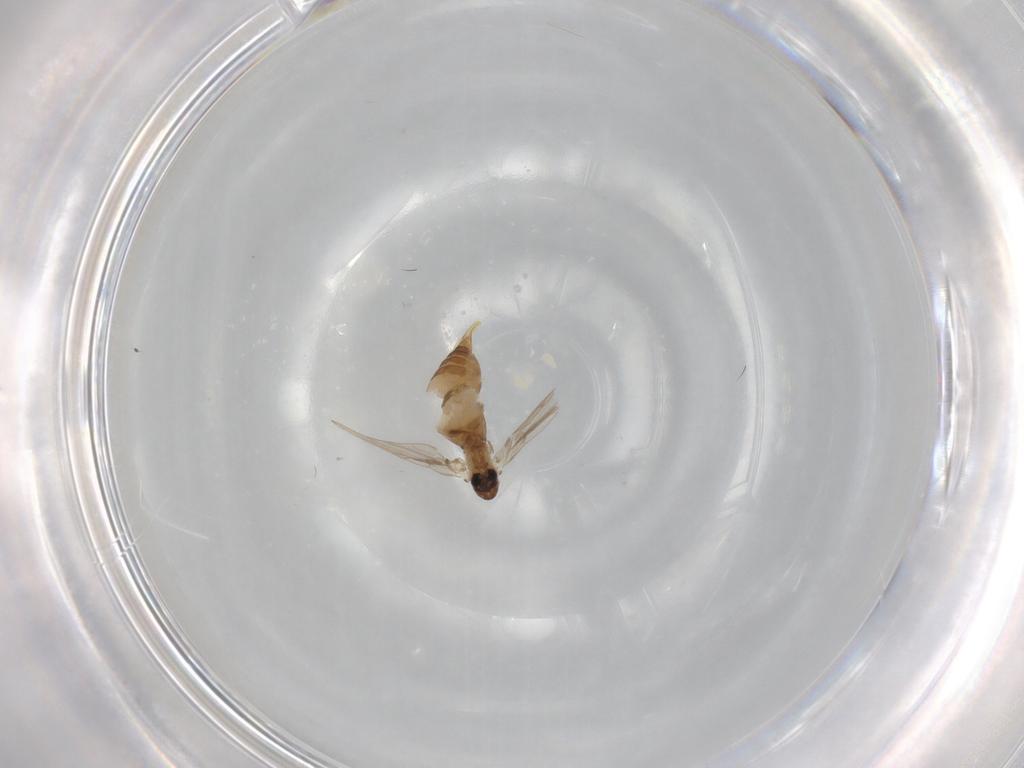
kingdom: Animalia
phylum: Arthropoda
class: Insecta
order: Diptera
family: Psychodidae
